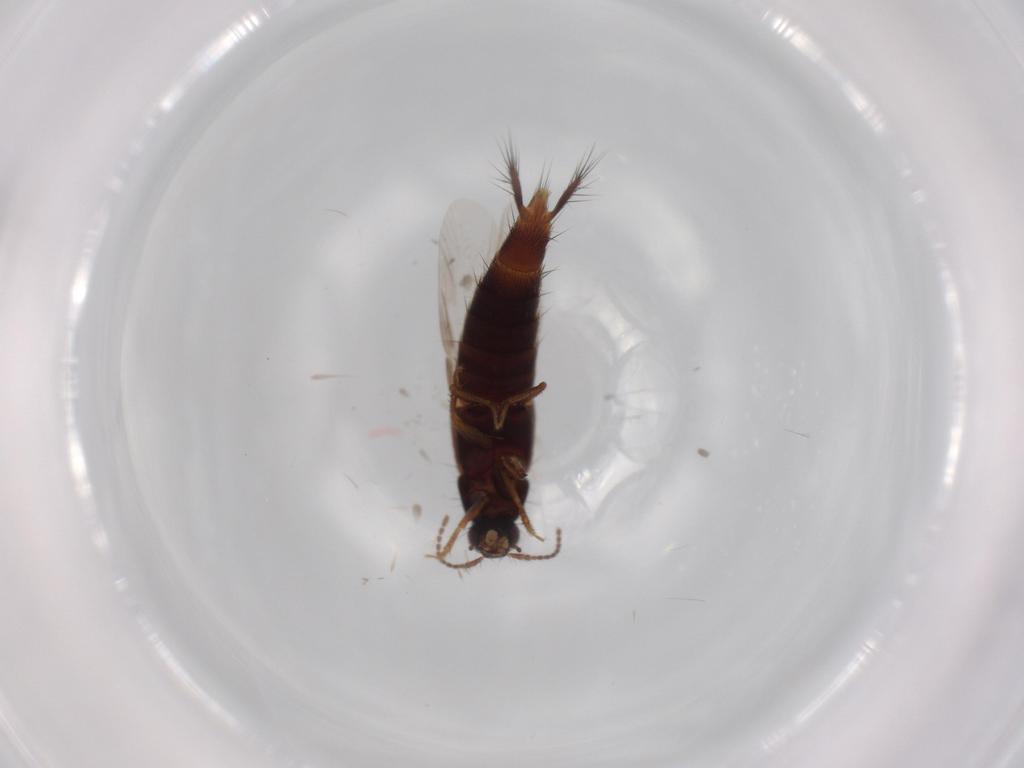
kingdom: Animalia
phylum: Arthropoda
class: Insecta
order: Coleoptera
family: Staphylinidae
